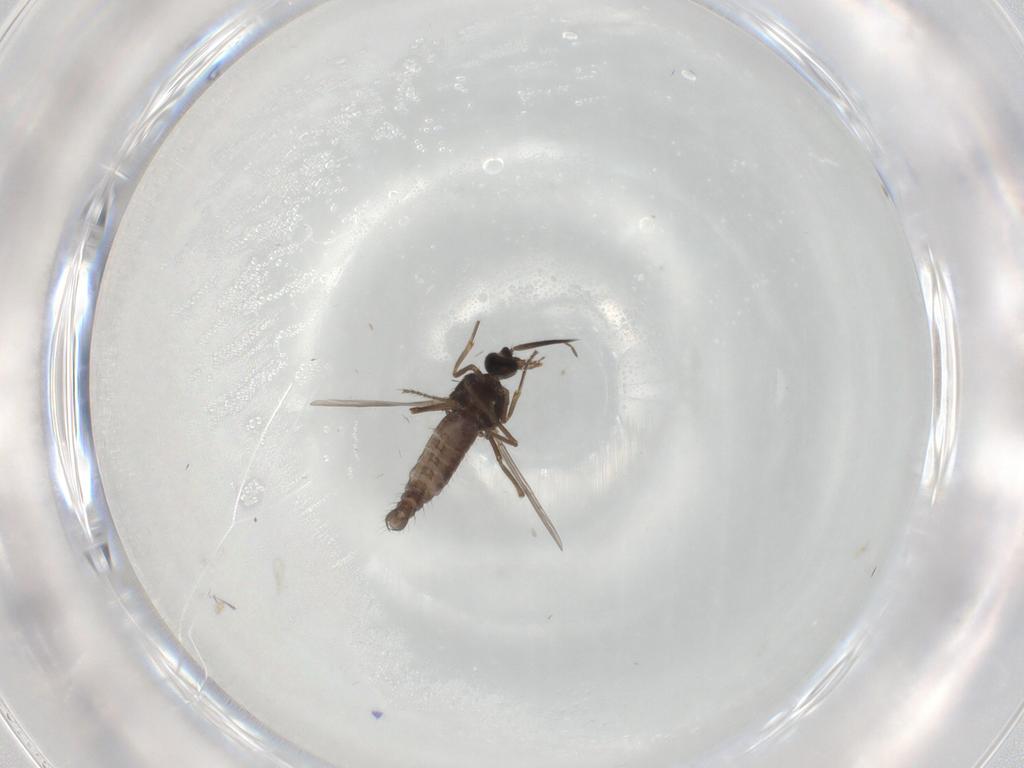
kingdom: Animalia
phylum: Arthropoda
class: Insecta
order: Diptera
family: Ceratopogonidae
